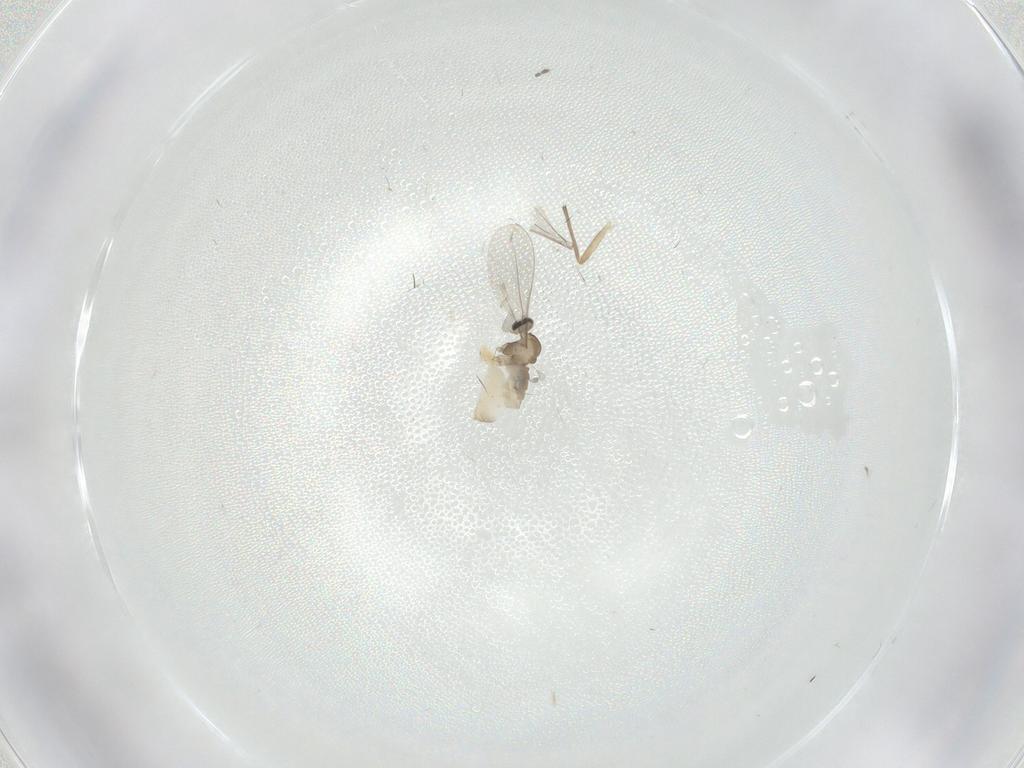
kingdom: Animalia
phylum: Arthropoda
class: Insecta
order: Diptera
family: Cecidomyiidae
